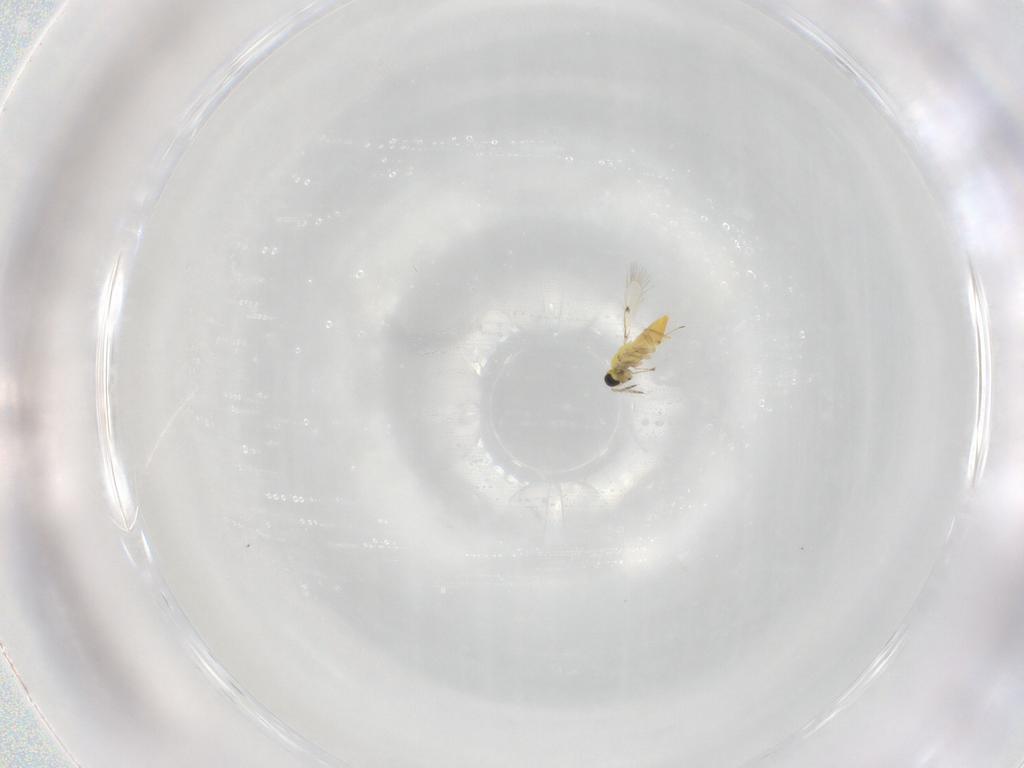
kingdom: Animalia
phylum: Arthropoda
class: Insecta
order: Hymenoptera
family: Trichogrammatidae
